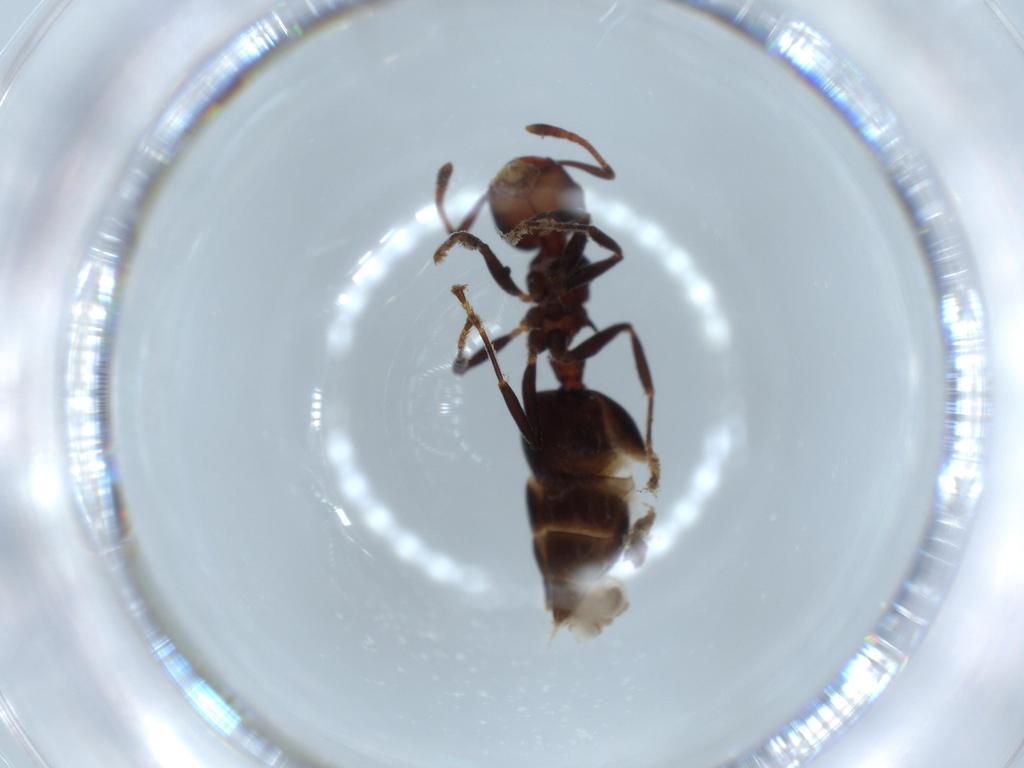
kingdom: Animalia
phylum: Arthropoda
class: Insecta
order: Hymenoptera
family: Formicidae
